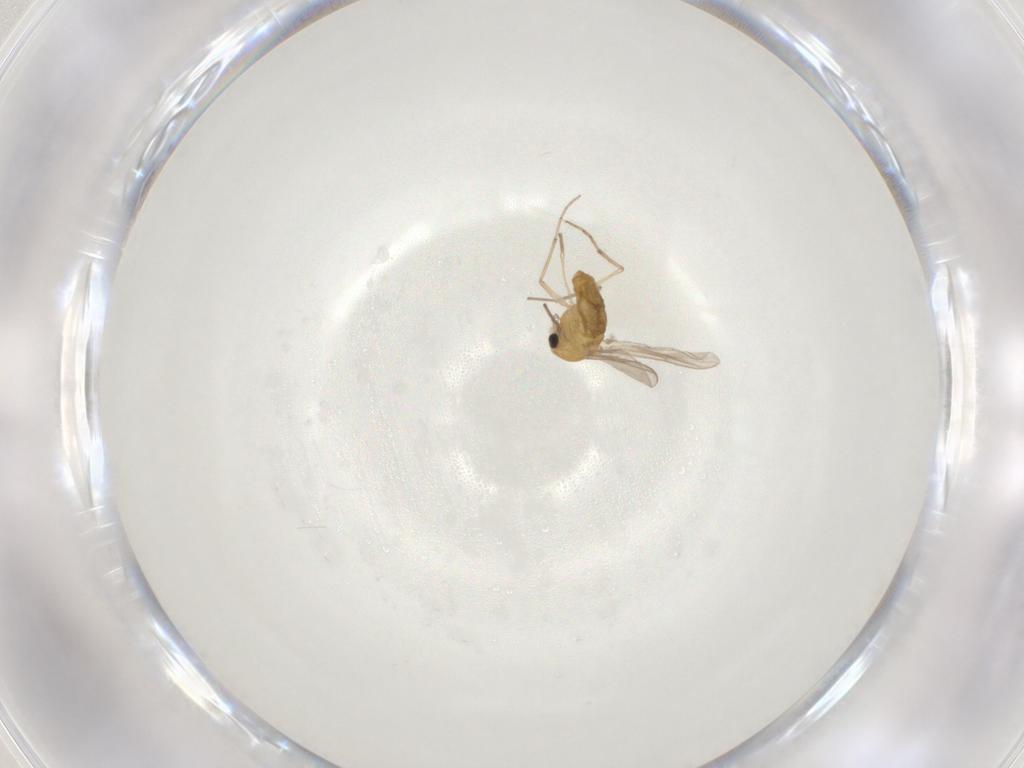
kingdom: Animalia
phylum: Arthropoda
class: Insecta
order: Diptera
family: Chironomidae
